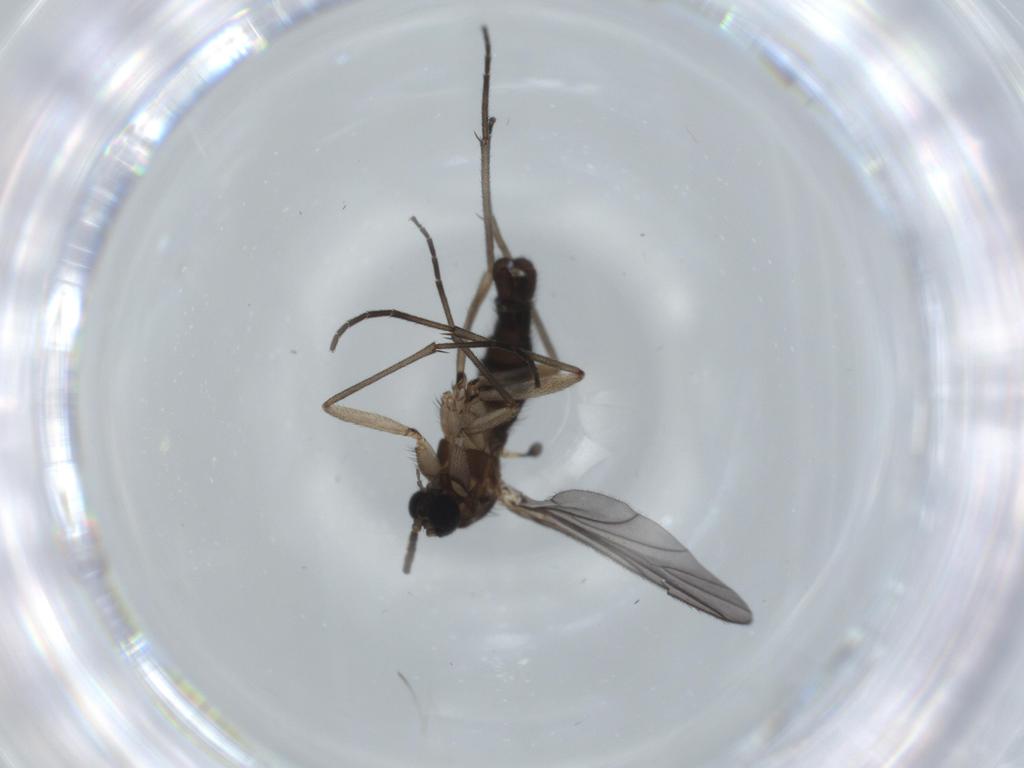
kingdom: Animalia
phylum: Arthropoda
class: Insecta
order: Diptera
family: Sciaridae
